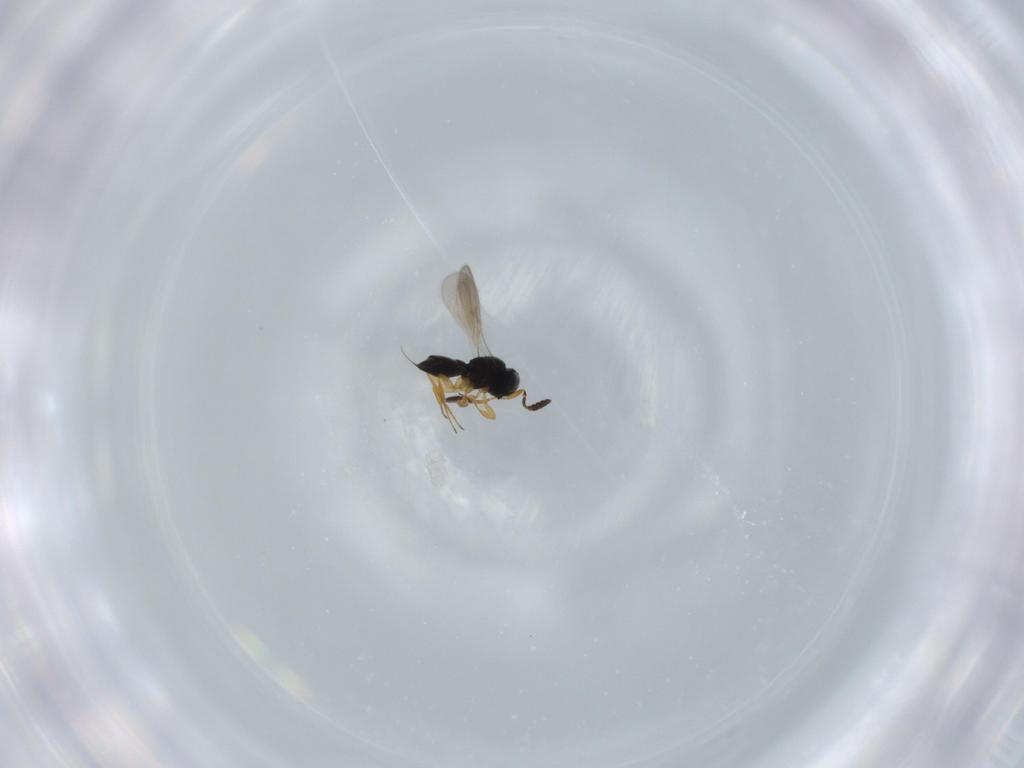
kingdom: Animalia
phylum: Arthropoda
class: Insecta
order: Hymenoptera
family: Scelionidae
